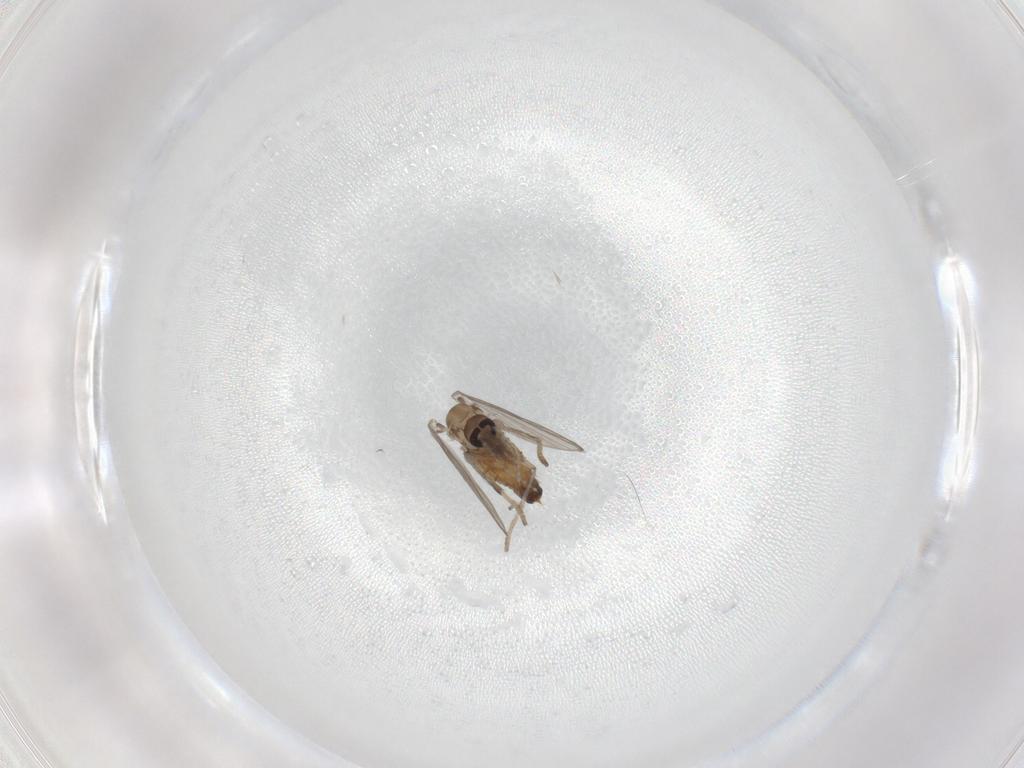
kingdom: Animalia
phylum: Arthropoda
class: Insecta
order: Diptera
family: Psychodidae
